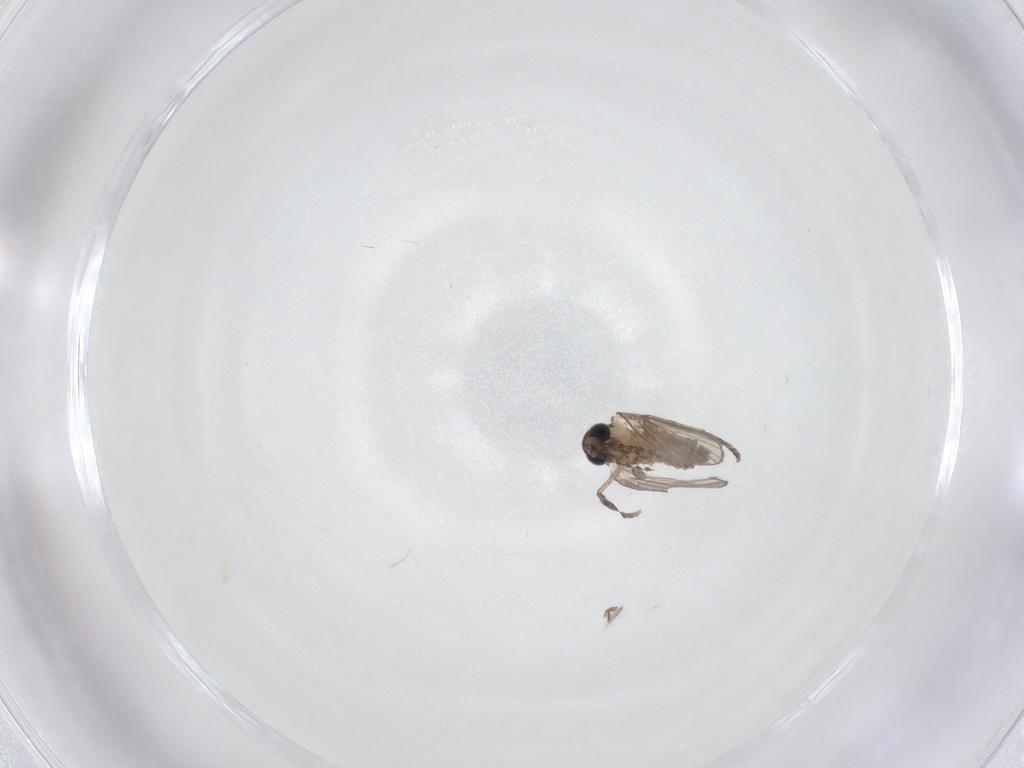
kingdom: Animalia
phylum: Arthropoda
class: Insecta
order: Diptera
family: Psychodidae
